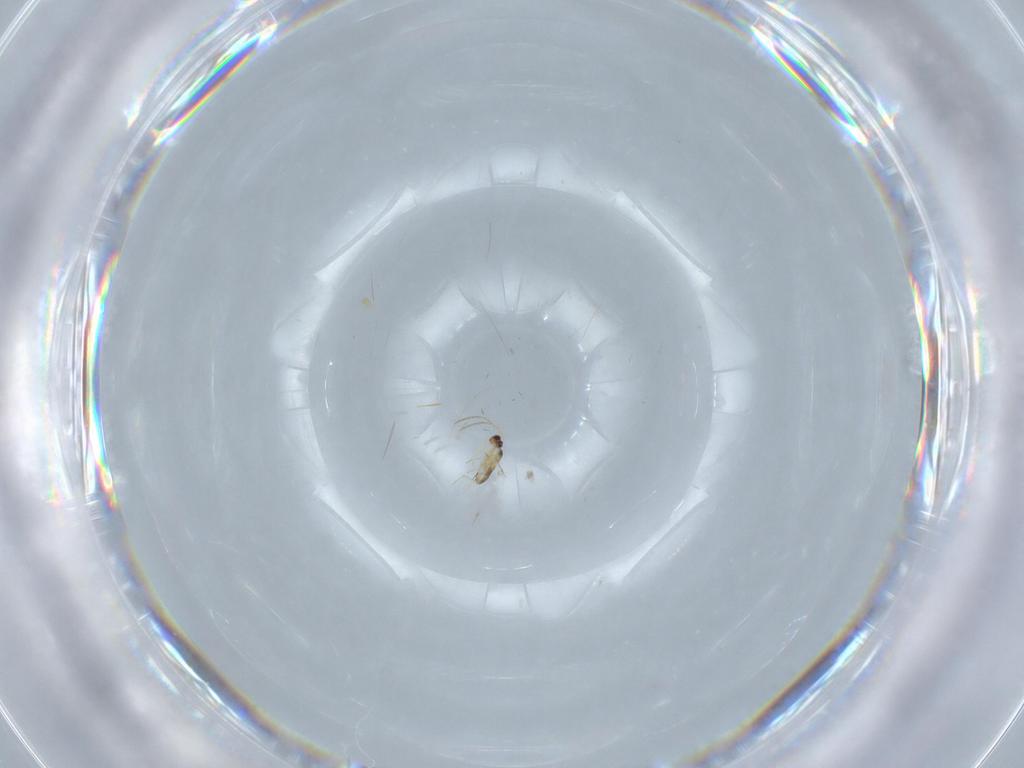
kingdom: Animalia
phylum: Arthropoda
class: Insecta
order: Hymenoptera
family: Mymaridae
